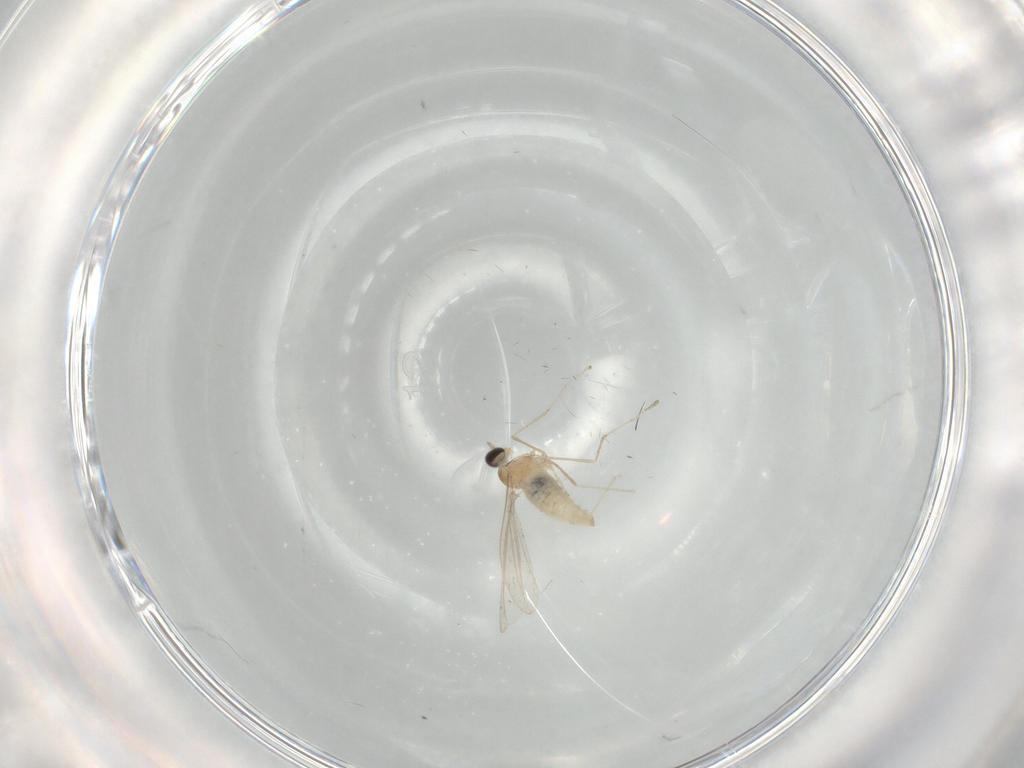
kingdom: Animalia
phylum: Arthropoda
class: Insecta
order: Diptera
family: Cecidomyiidae
